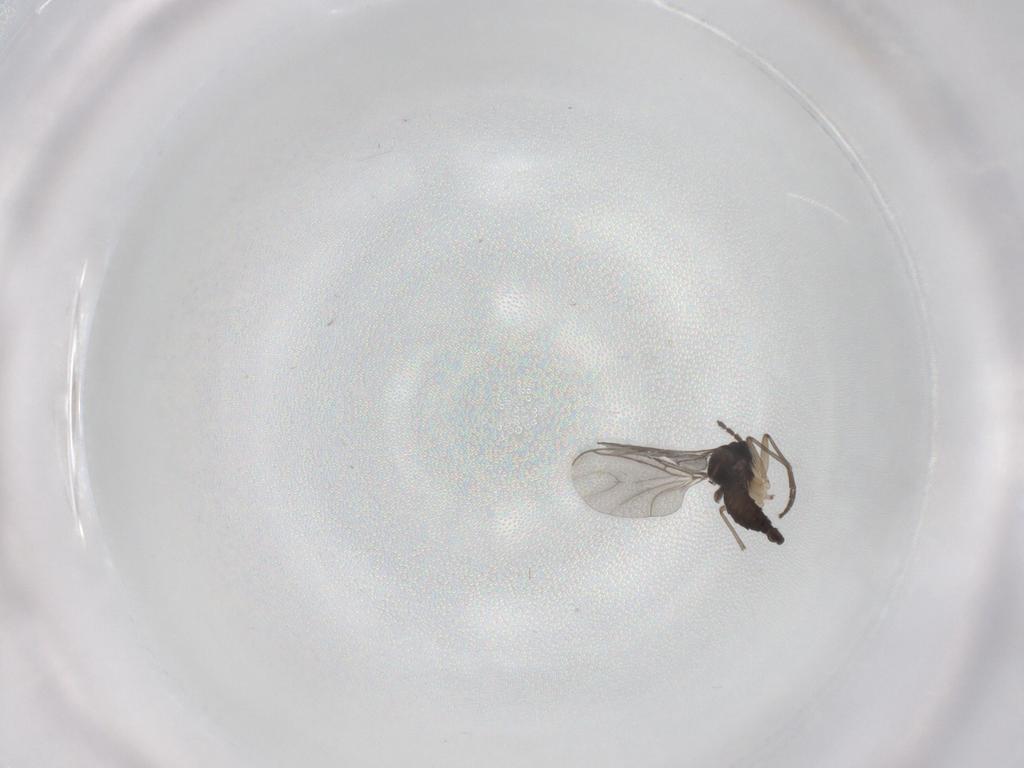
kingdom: Animalia
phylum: Arthropoda
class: Insecta
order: Diptera
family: Sciaridae
